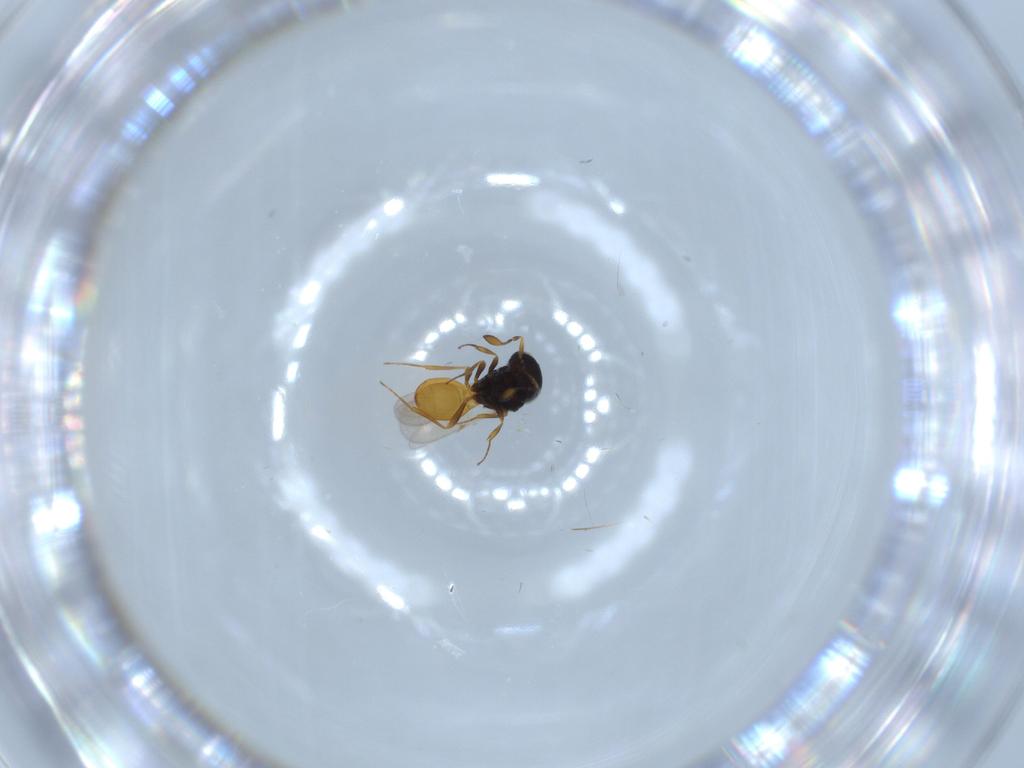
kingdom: Animalia
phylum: Arthropoda
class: Insecta
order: Hymenoptera
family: Scelionidae
